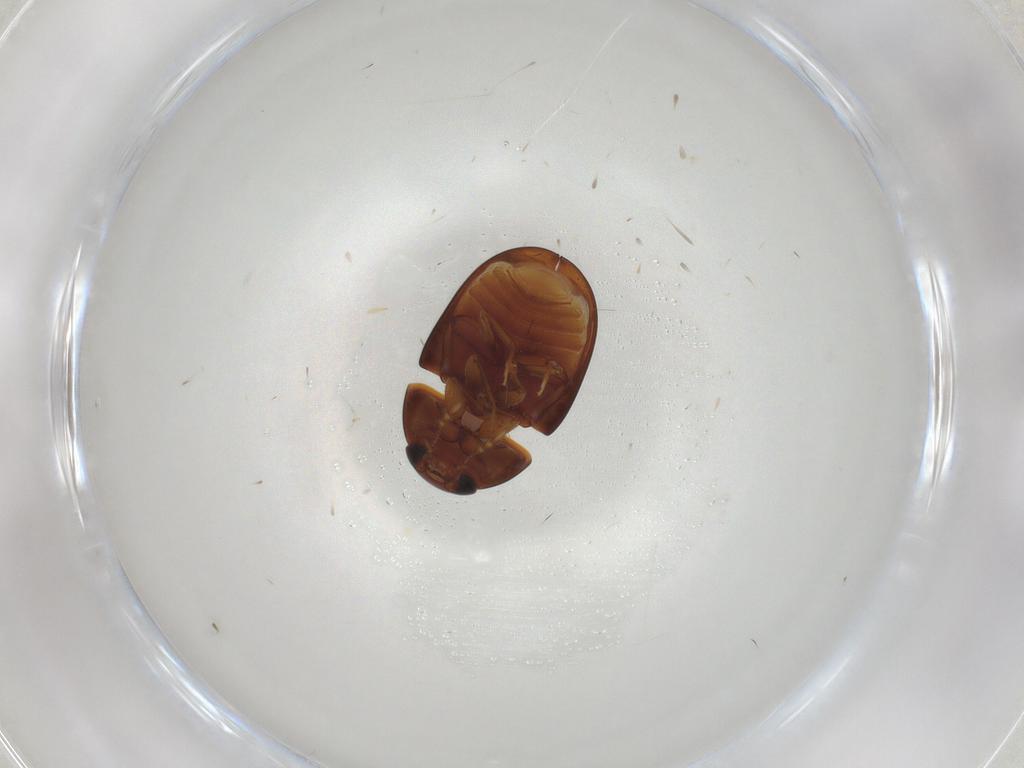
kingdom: Animalia
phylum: Arthropoda
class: Insecta
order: Coleoptera
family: Phalacridae
